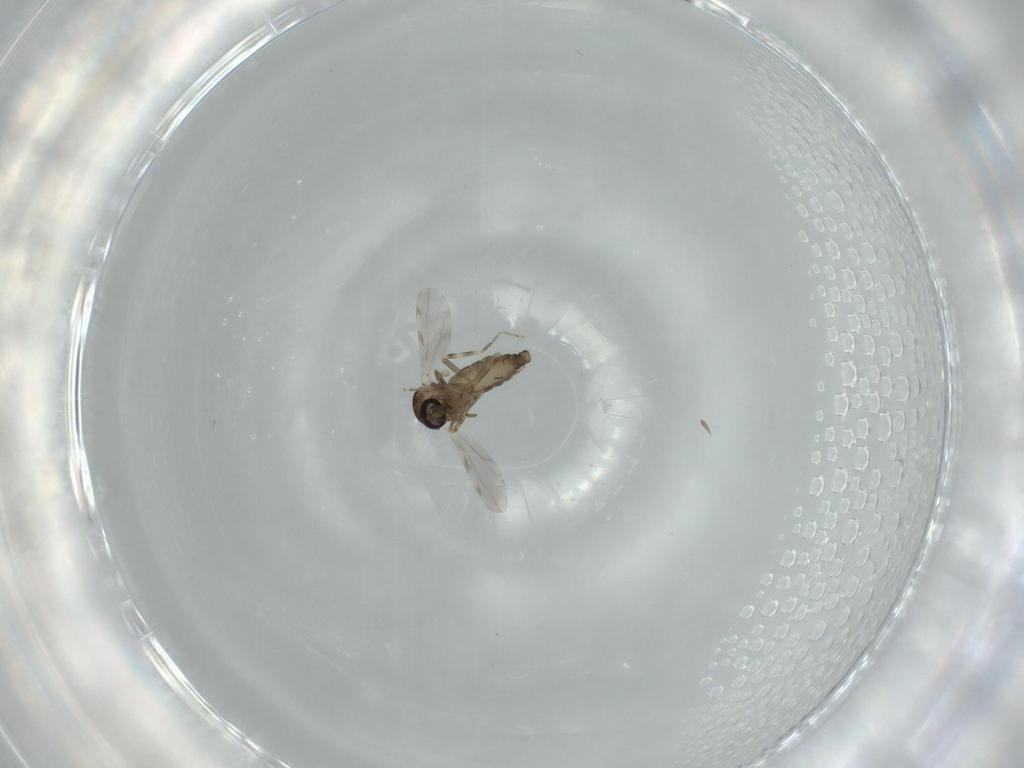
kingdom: Animalia
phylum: Arthropoda
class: Insecta
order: Diptera
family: Ceratopogonidae
